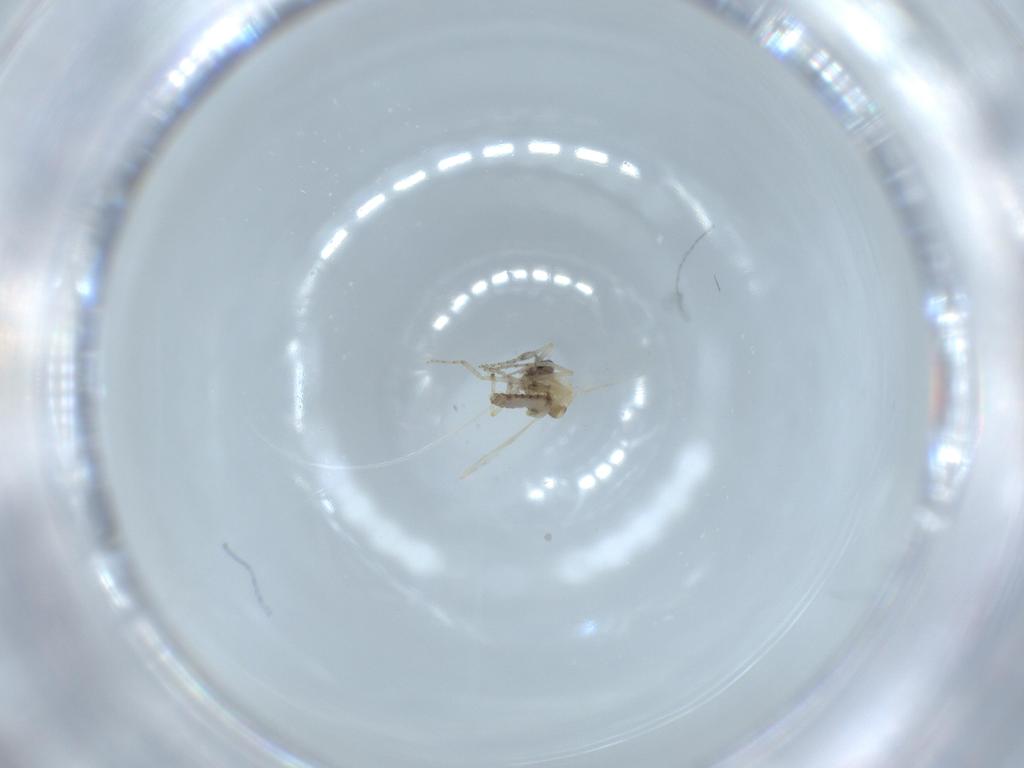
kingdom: Animalia
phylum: Arthropoda
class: Insecta
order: Diptera
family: Ceratopogonidae
